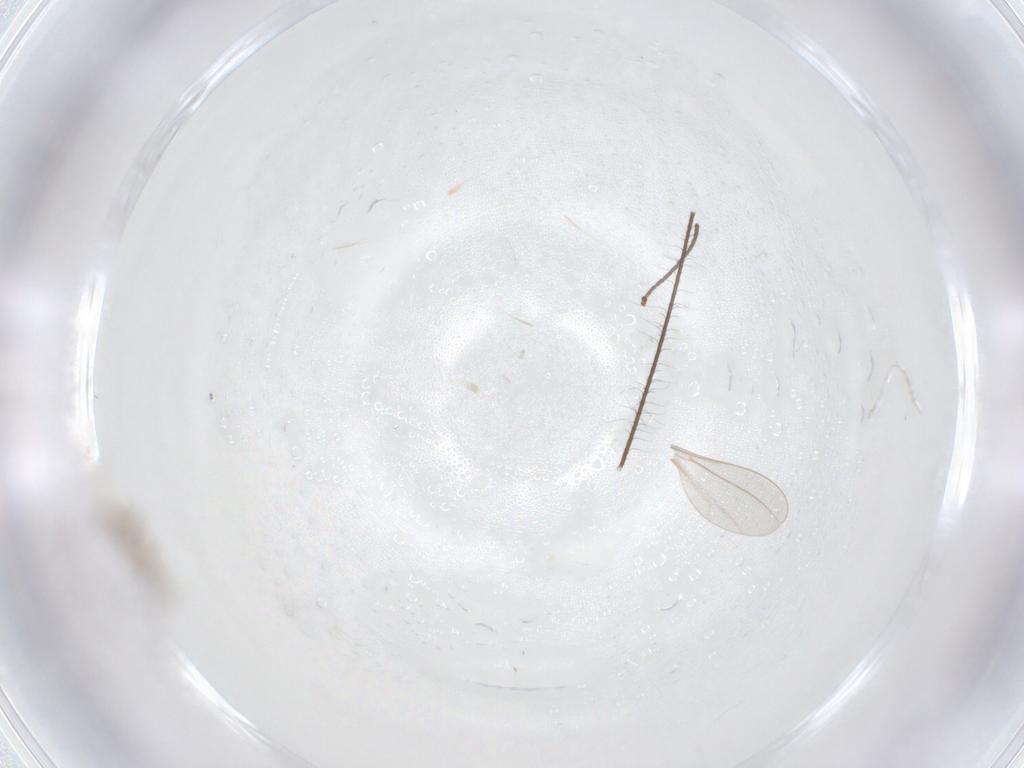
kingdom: Animalia
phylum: Arthropoda
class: Insecta
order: Diptera
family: Chironomidae
